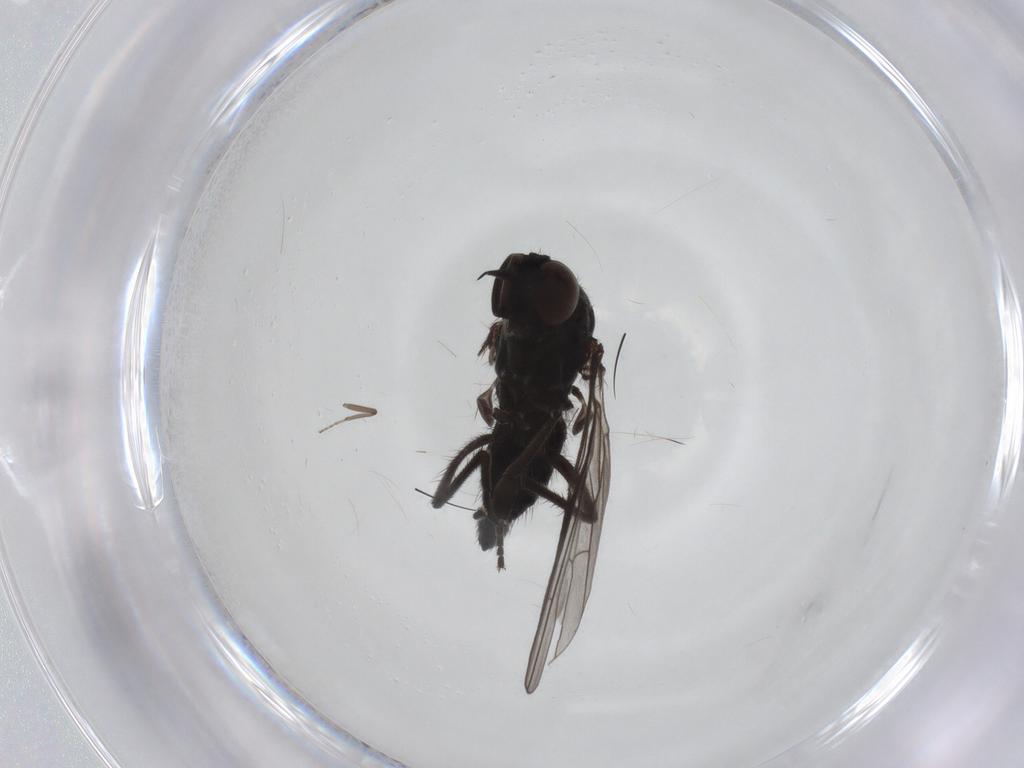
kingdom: Animalia
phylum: Arthropoda
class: Insecta
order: Diptera
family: Empididae
